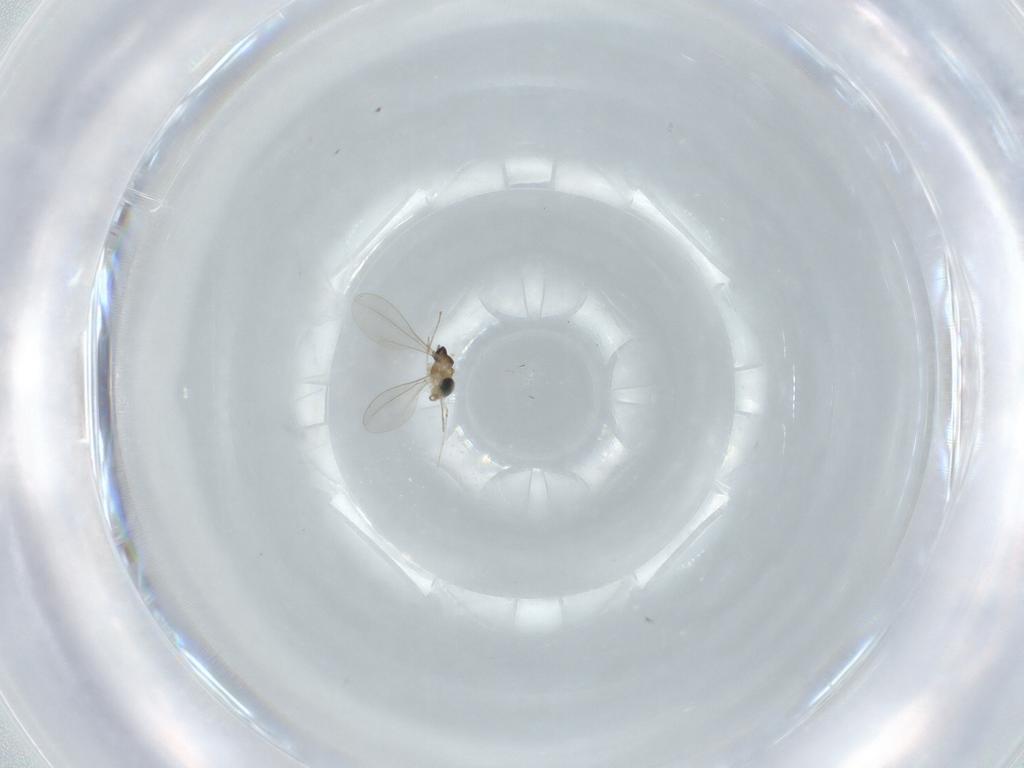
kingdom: Animalia
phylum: Arthropoda
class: Insecta
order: Diptera
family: Cecidomyiidae
